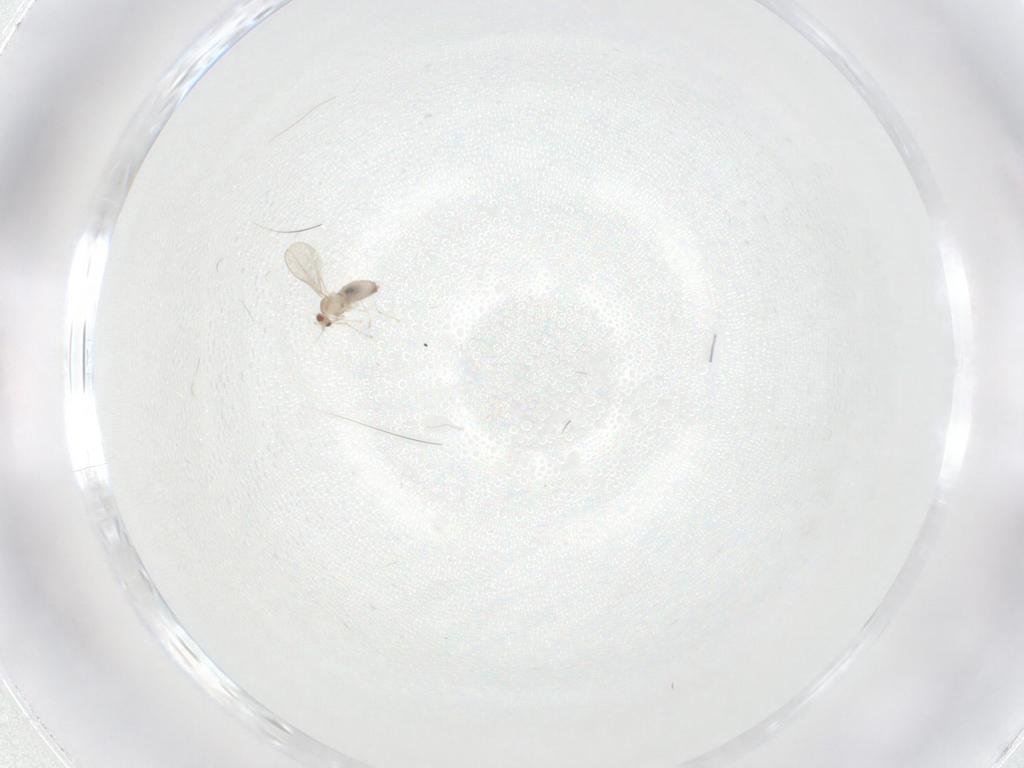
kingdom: Animalia
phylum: Arthropoda
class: Insecta
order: Diptera
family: Cecidomyiidae
